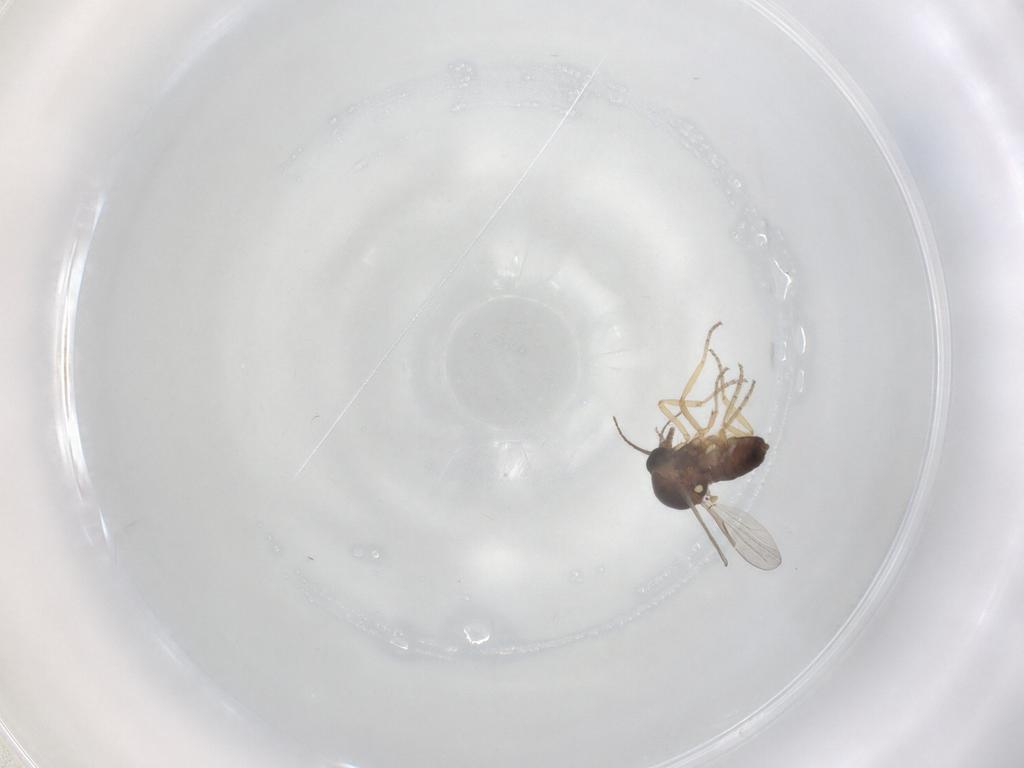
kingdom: Animalia
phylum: Arthropoda
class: Insecta
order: Diptera
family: Ceratopogonidae
